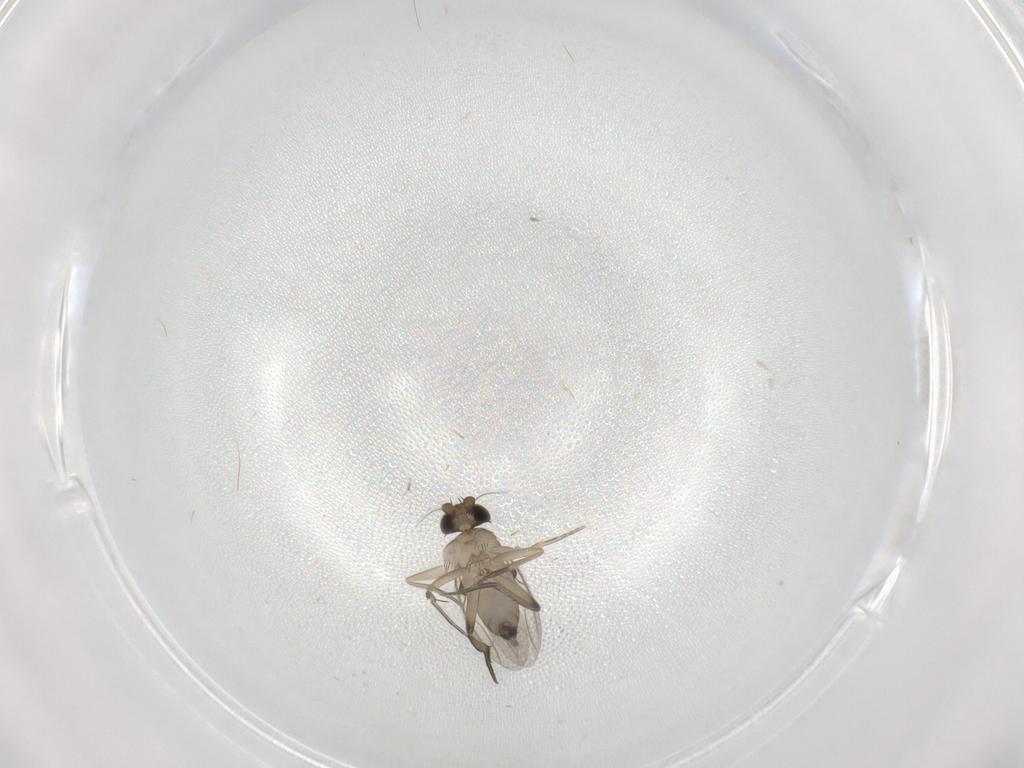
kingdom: Animalia
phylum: Arthropoda
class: Insecta
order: Diptera
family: Phoridae
